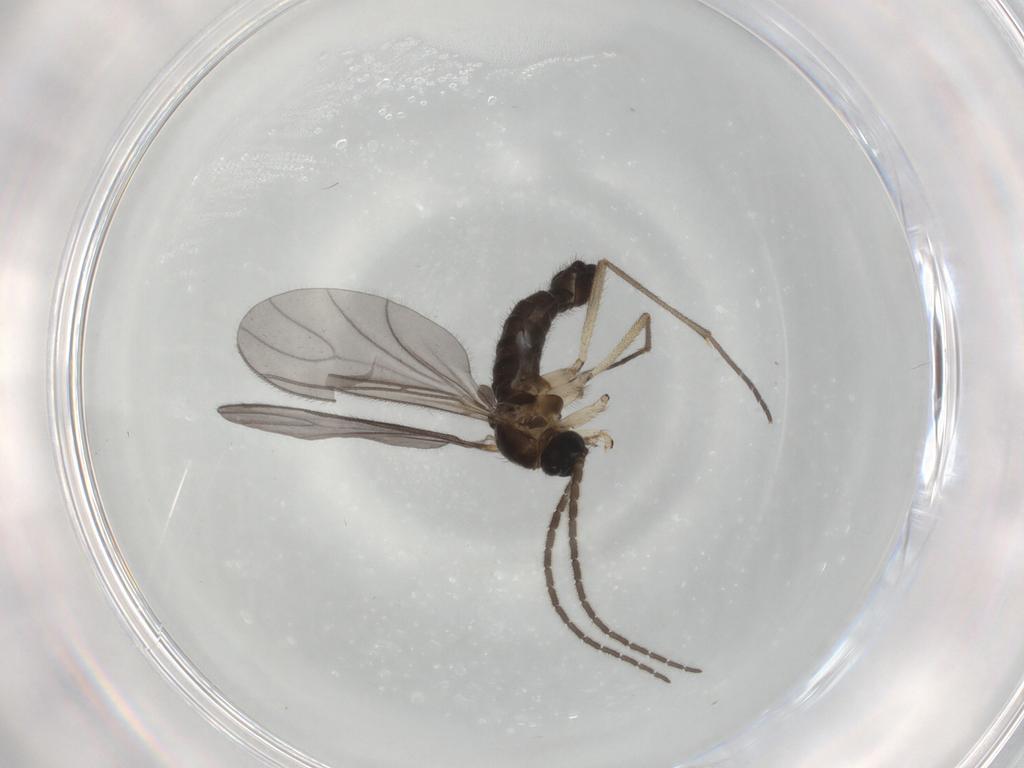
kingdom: Animalia
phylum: Arthropoda
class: Insecta
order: Diptera
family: Sciaridae
